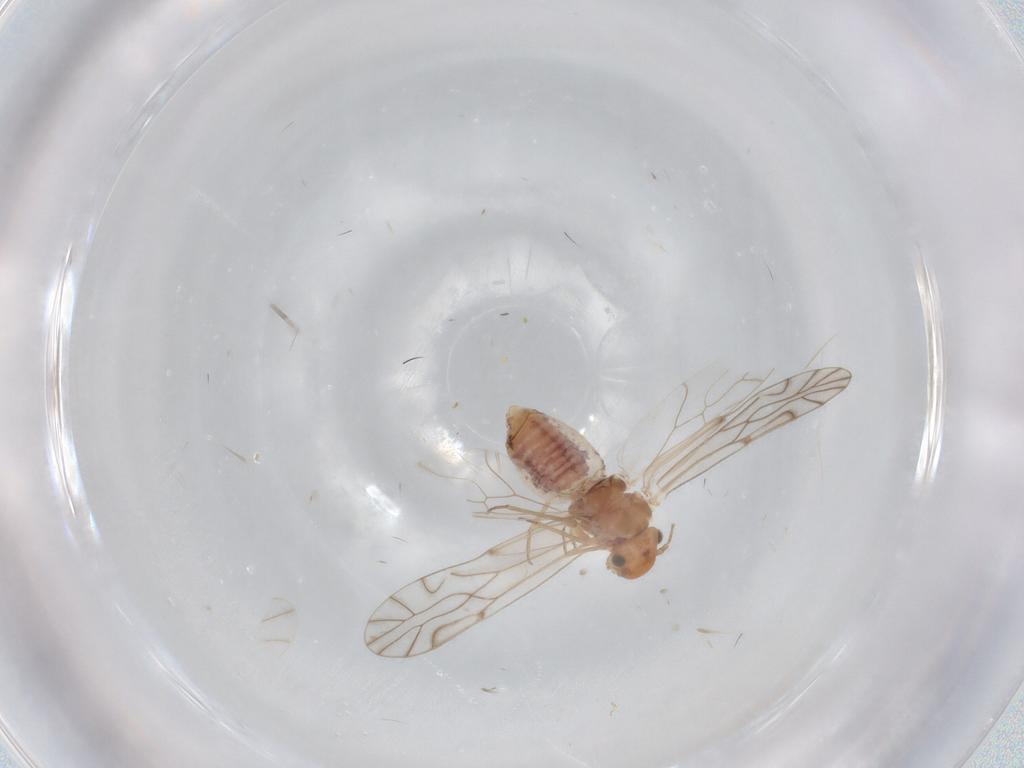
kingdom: Animalia
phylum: Arthropoda
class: Insecta
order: Psocodea
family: Lachesillidae
